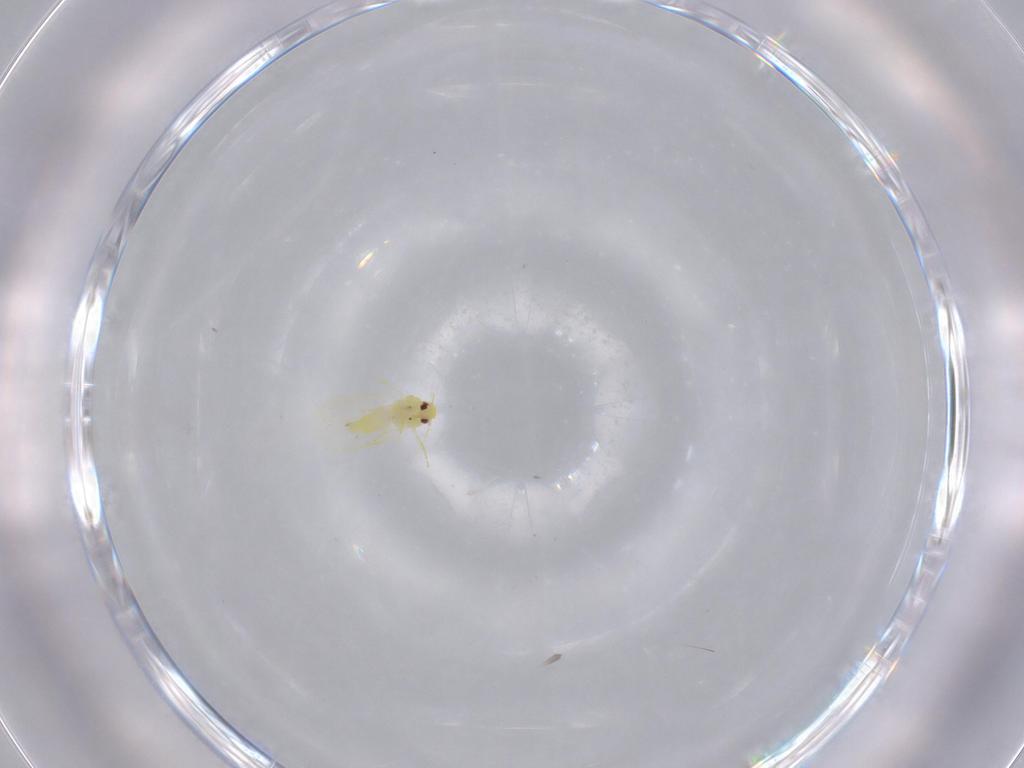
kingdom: Animalia
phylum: Arthropoda
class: Insecta
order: Hemiptera
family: Aleyrodidae
